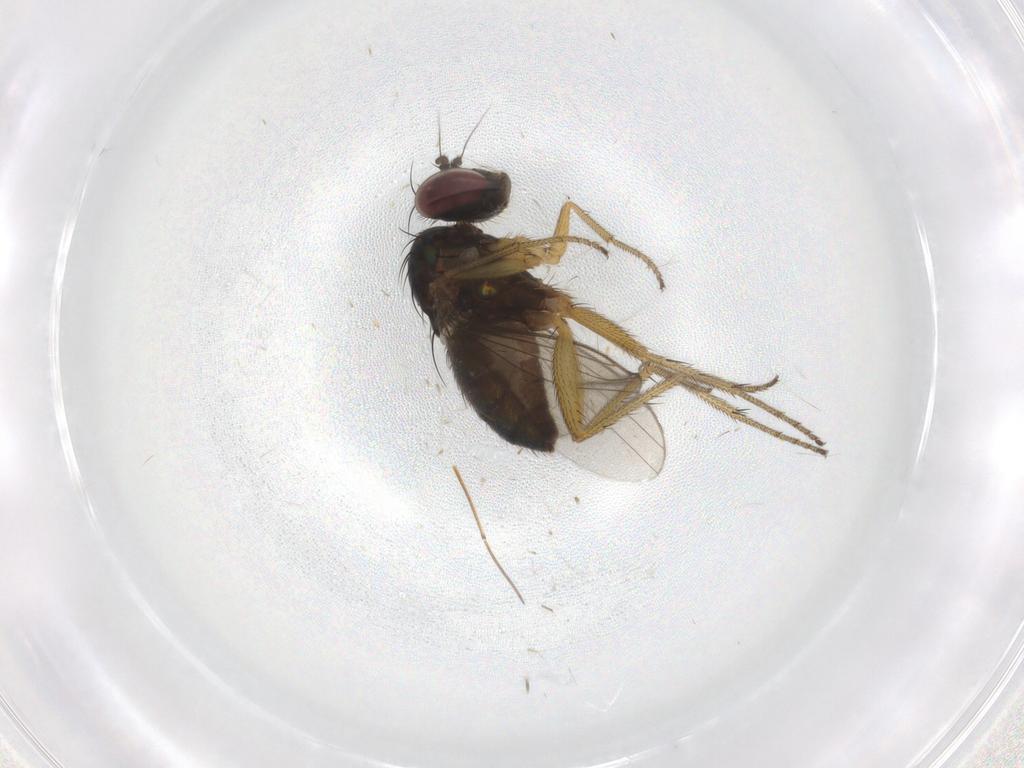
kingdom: Animalia
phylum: Arthropoda
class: Insecta
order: Diptera
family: Keroplatidae
